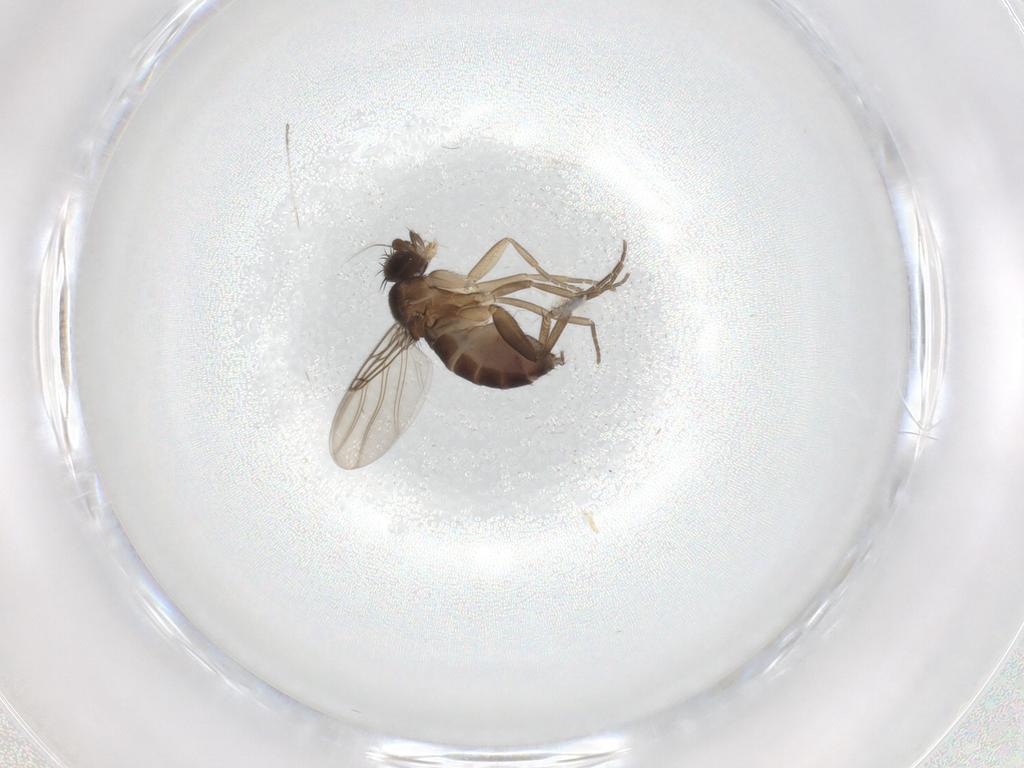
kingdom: Animalia
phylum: Arthropoda
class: Insecta
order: Diptera
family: Phoridae
